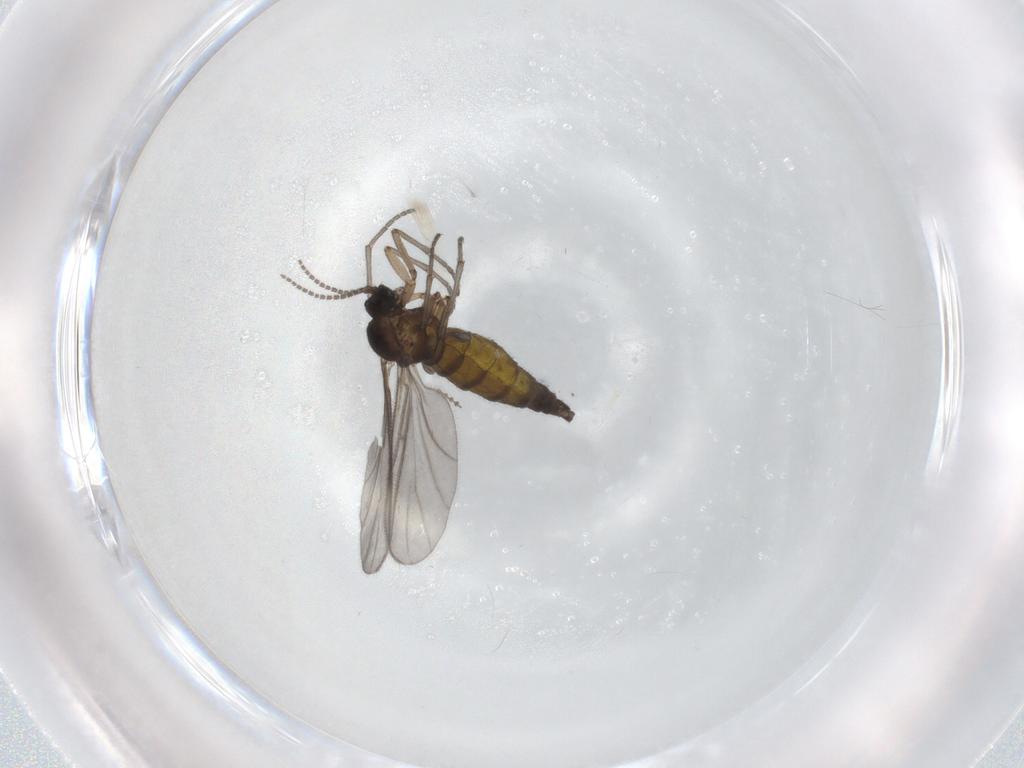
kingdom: Animalia
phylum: Arthropoda
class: Insecta
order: Diptera
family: Sciaridae
